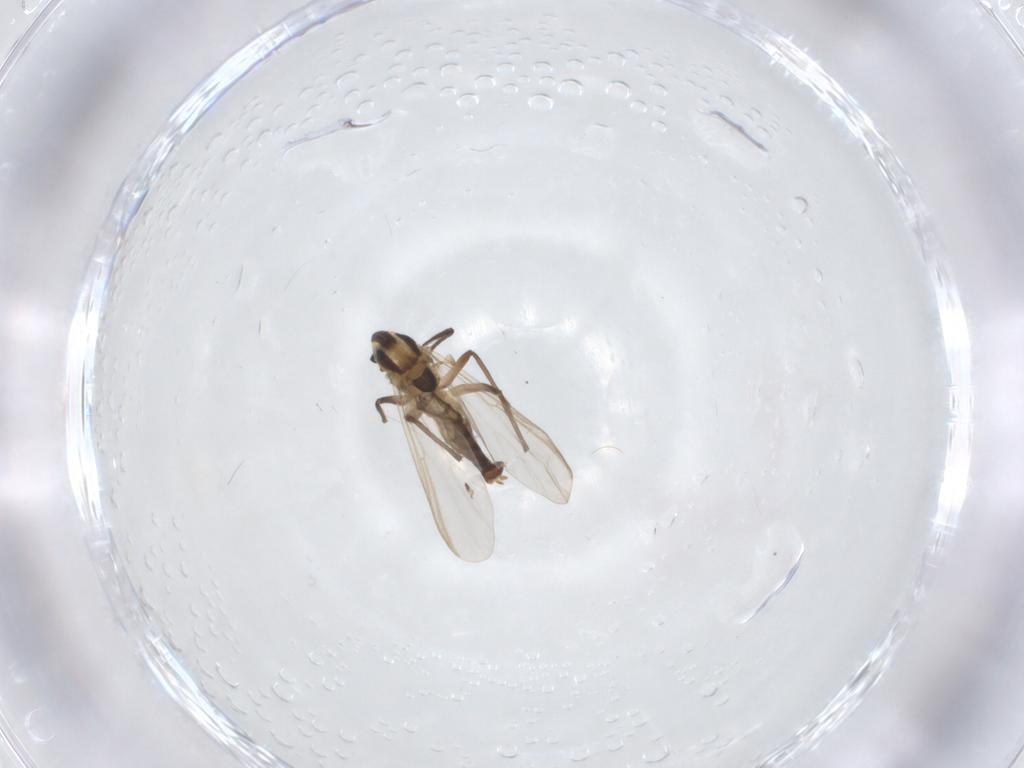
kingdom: Animalia
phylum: Arthropoda
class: Insecta
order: Diptera
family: Chironomidae
